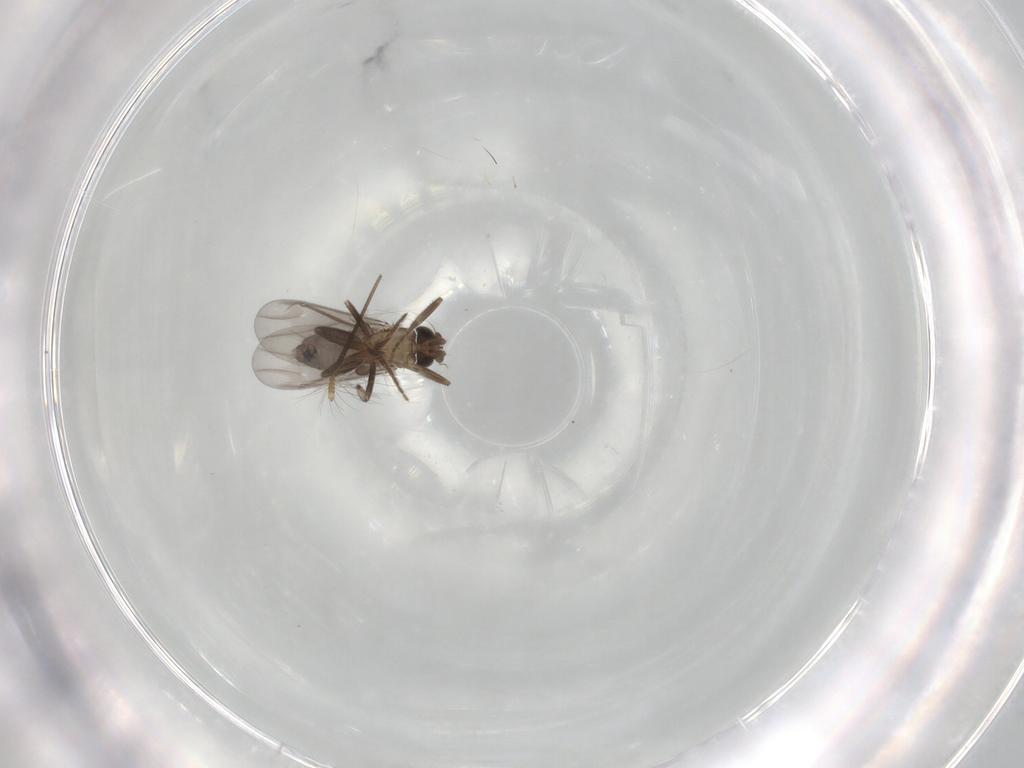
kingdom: Animalia
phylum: Arthropoda
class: Insecta
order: Diptera
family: Chironomidae
